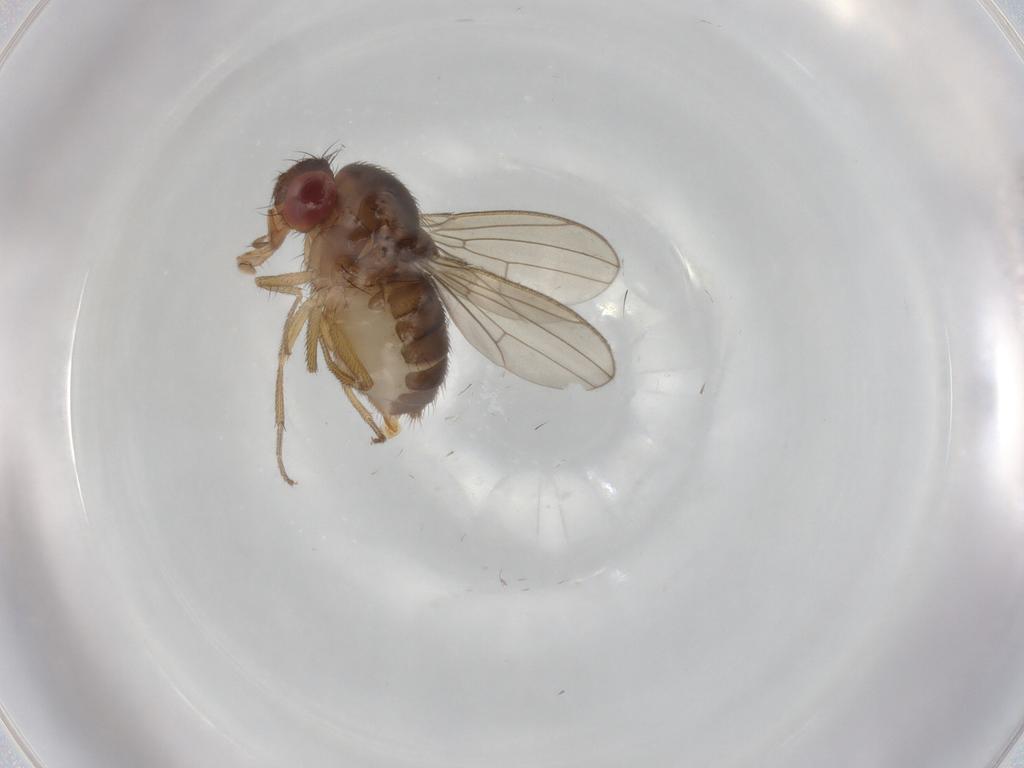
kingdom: Animalia
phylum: Arthropoda
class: Insecta
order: Diptera
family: Drosophilidae
